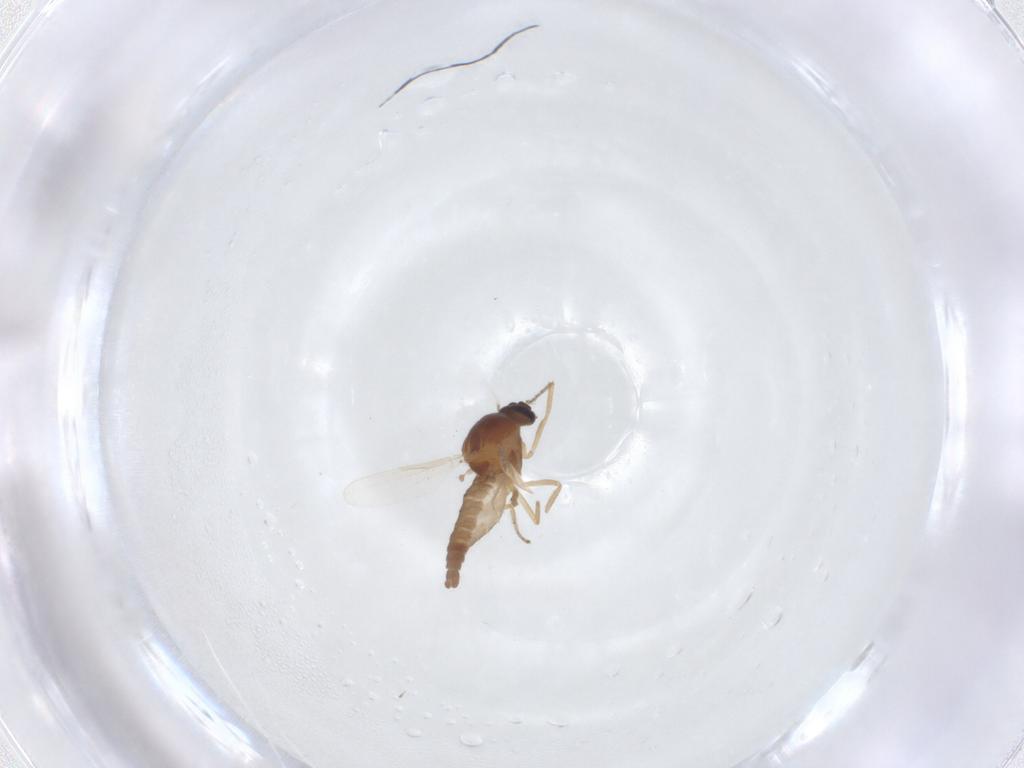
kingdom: Animalia
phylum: Arthropoda
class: Insecta
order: Diptera
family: Ceratopogonidae
